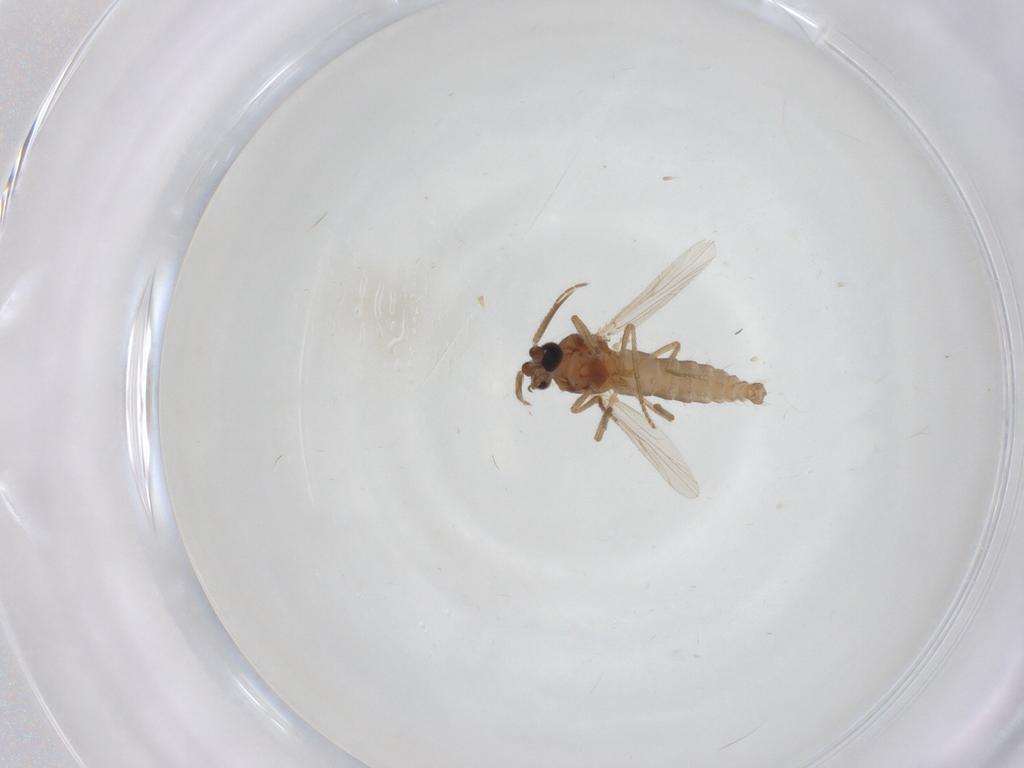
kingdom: Animalia
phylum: Arthropoda
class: Insecta
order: Diptera
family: Ceratopogonidae
